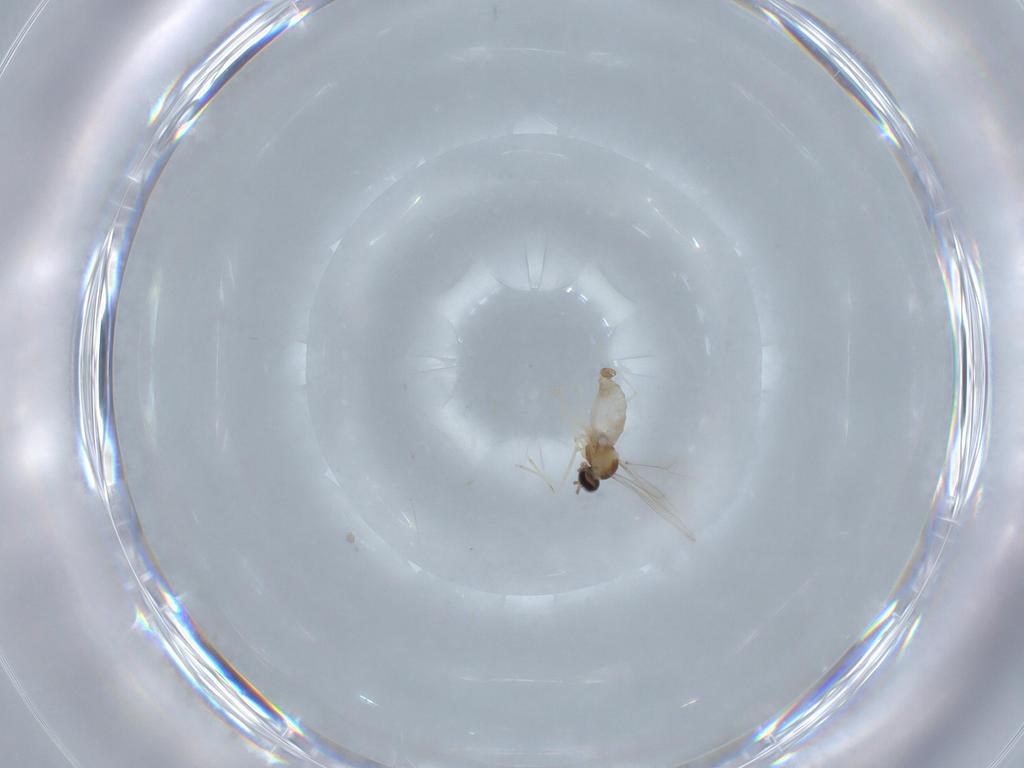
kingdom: Animalia
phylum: Arthropoda
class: Insecta
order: Diptera
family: Cecidomyiidae
